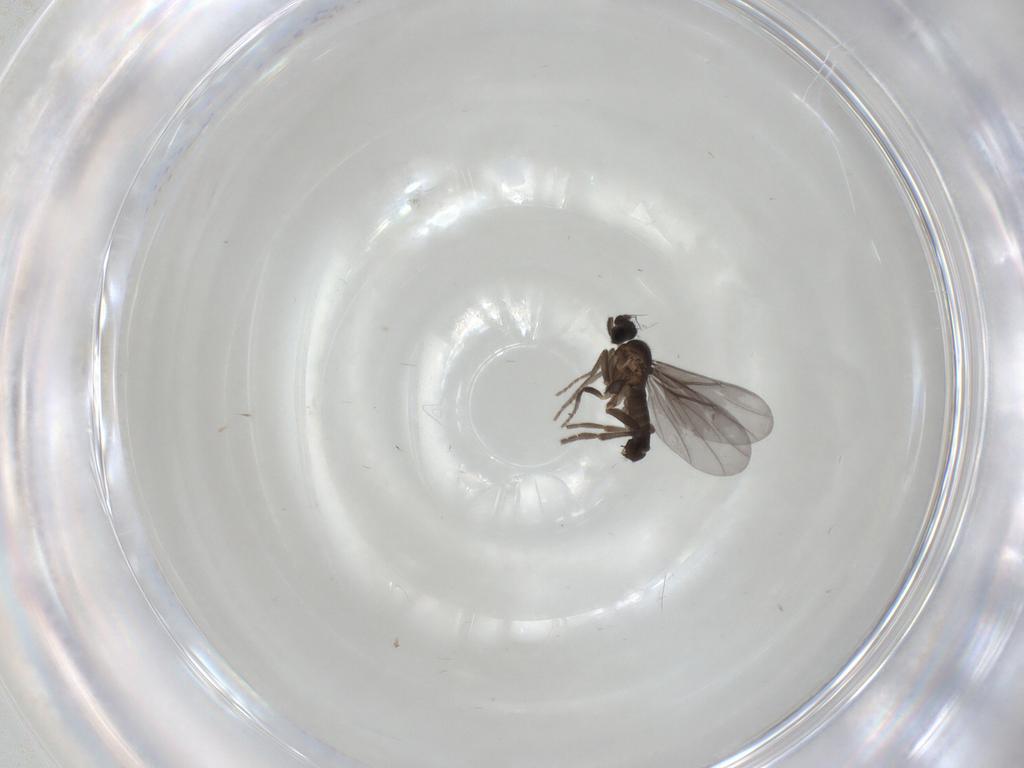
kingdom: Animalia
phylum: Arthropoda
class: Insecta
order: Diptera
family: Phoridae
